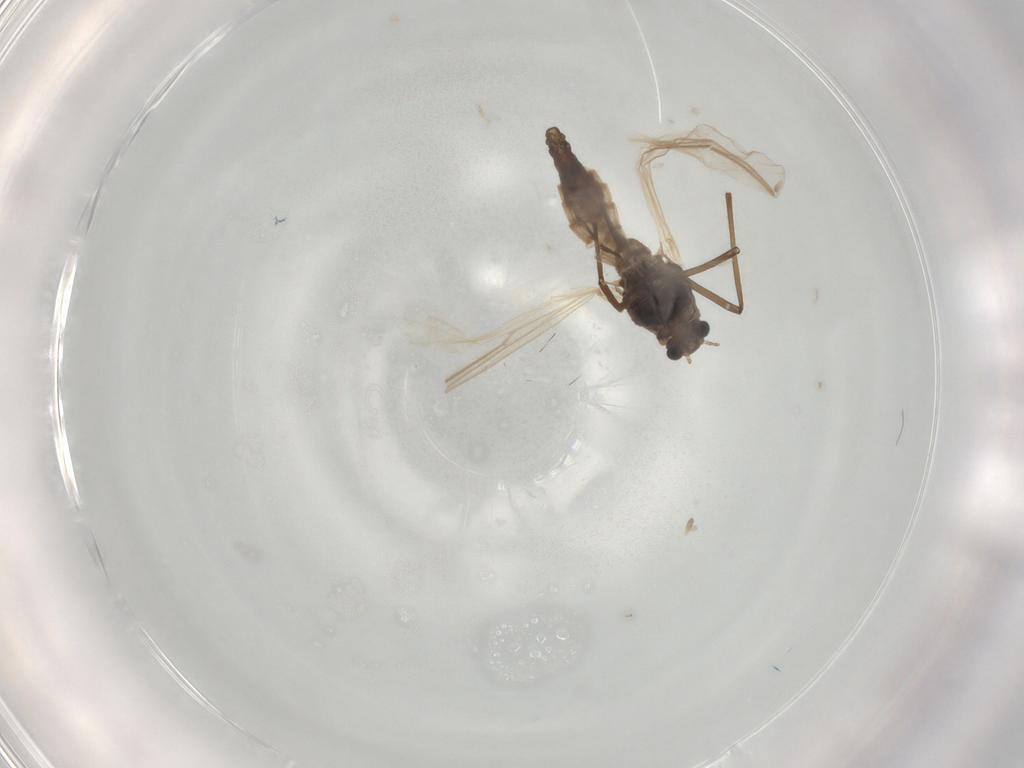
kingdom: Animalia
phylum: Arthropoda
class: Insecta
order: Diptera
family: Chironomidae
